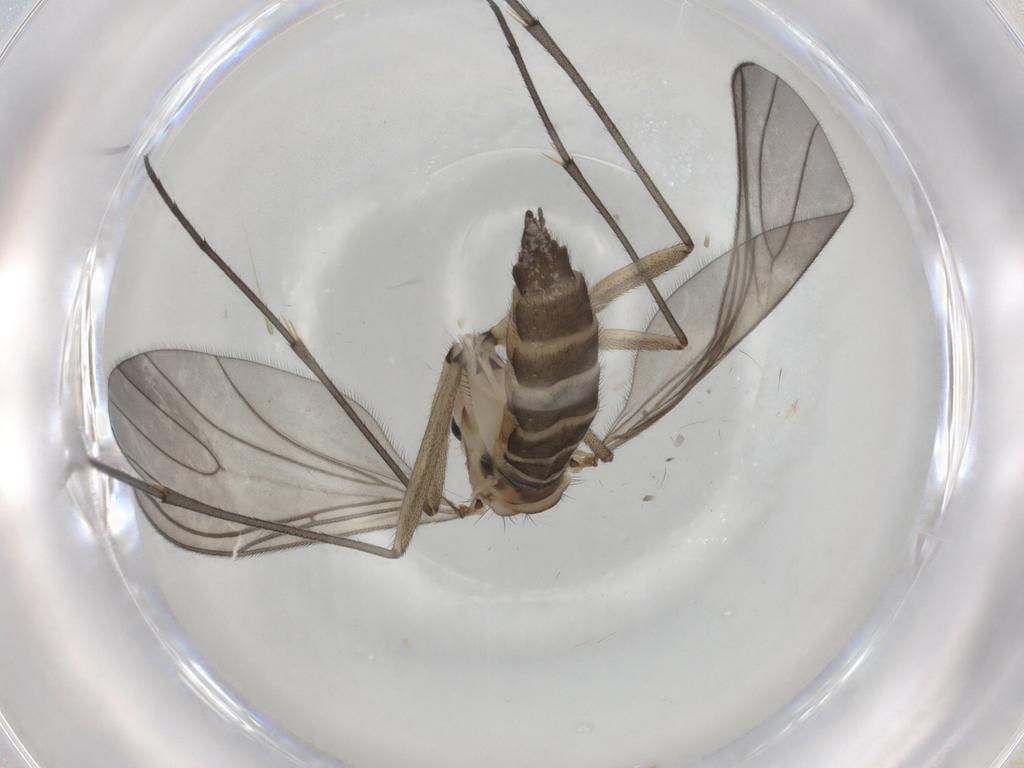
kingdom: Animalia
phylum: Arthropoda
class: Insecta
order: Diptera
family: Sciaridae
